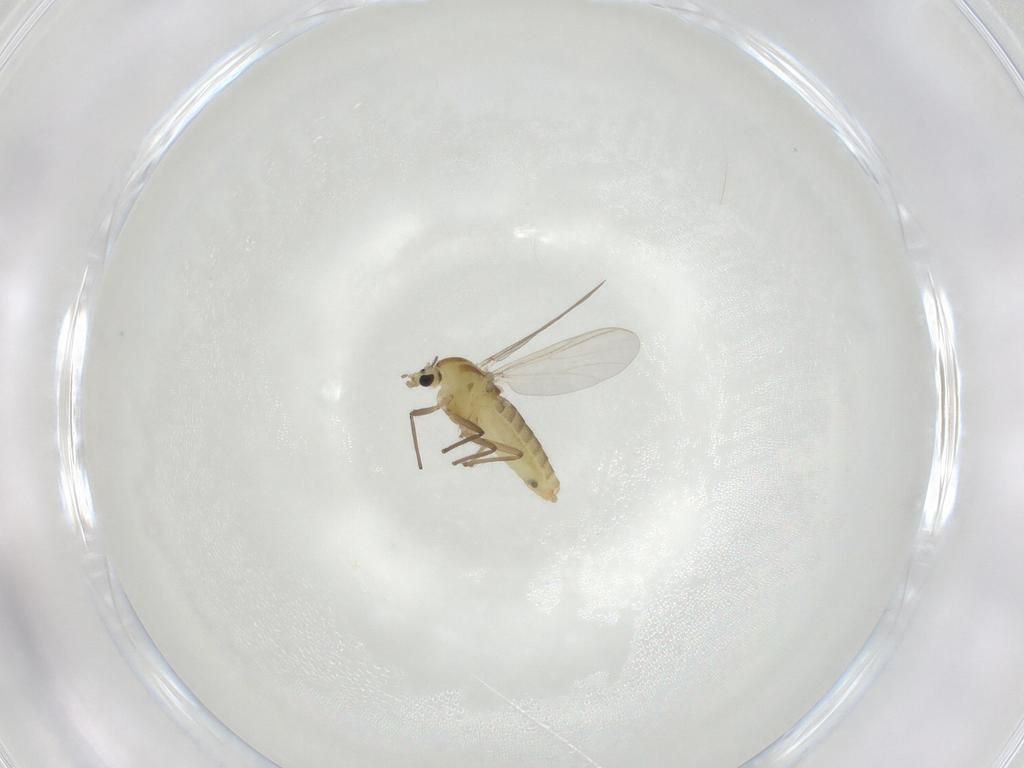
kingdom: Animalia
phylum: Arthropoda
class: Insecta
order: Diptera
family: Chironomidae
